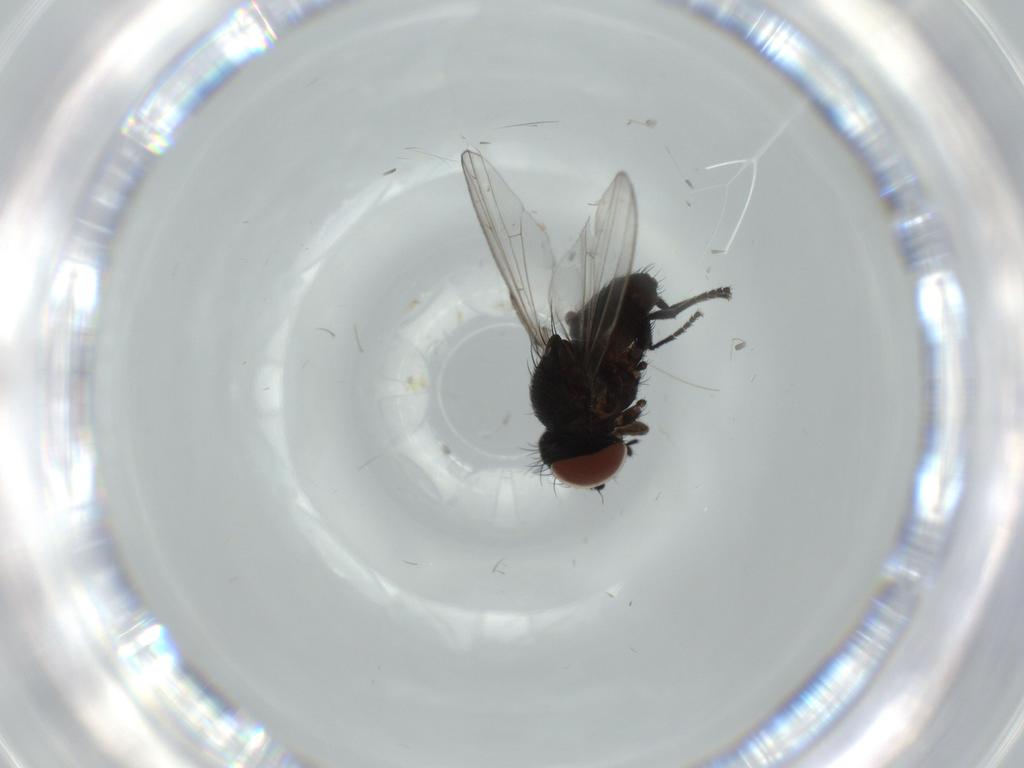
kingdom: Animalia
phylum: Arthropoda
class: Insecta
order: Diptera
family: Milichiidae
